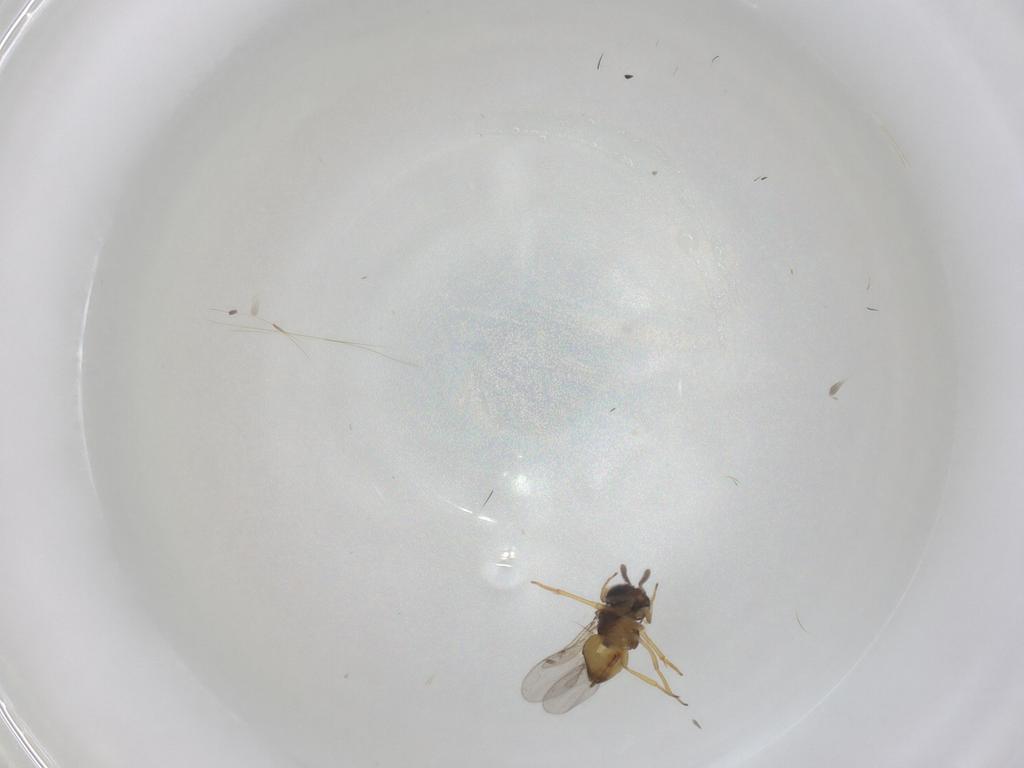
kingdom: Animalia
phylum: Arthropoda
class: Insecta
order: Hymenoptera
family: Encyrtidae
